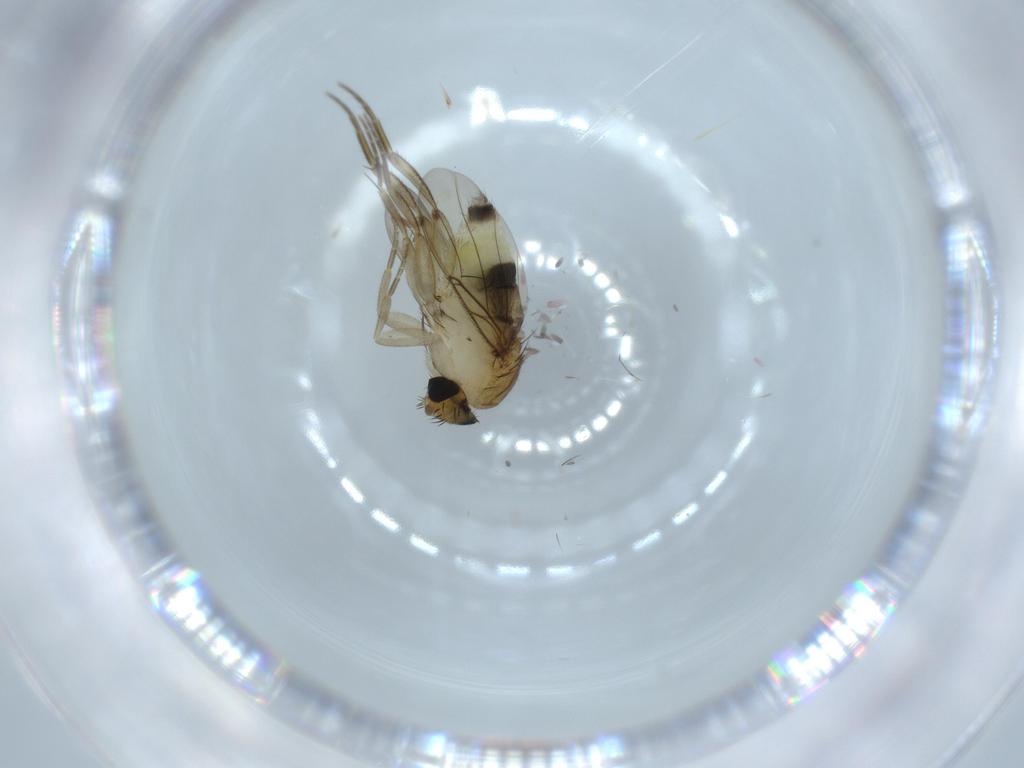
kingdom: Animalia
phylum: Arthropoda
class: Insecta
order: Diptera
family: Phoridae
